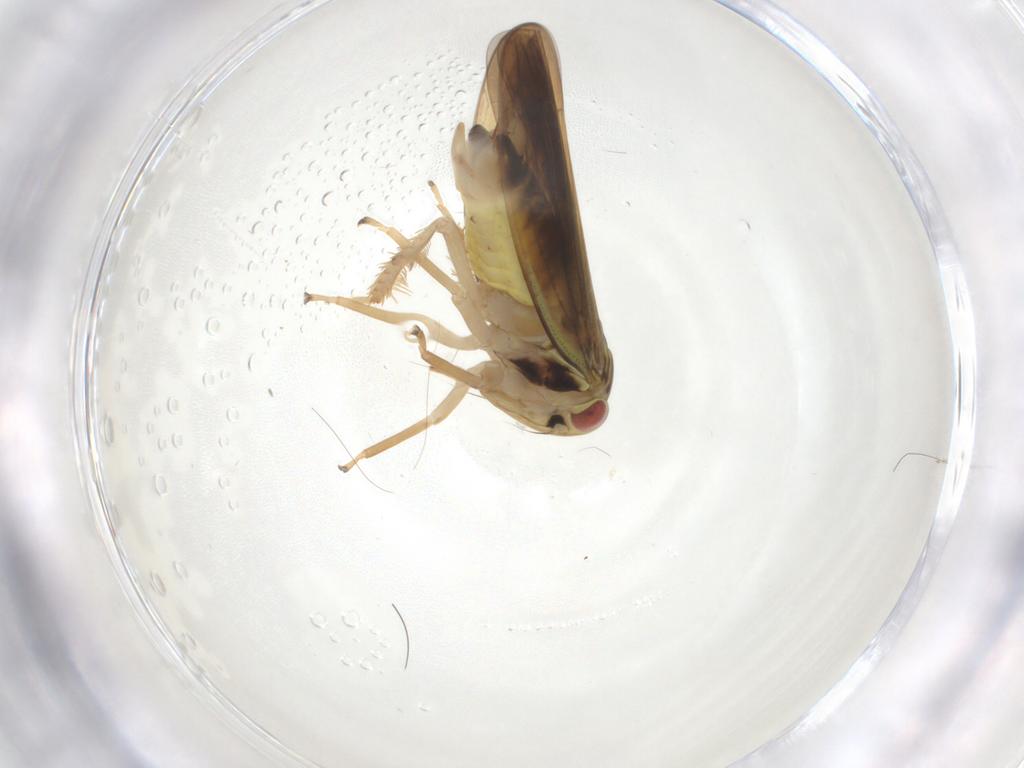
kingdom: Animalia
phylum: Arthropoda
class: Insecta
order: Hemiptera
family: Cicadellidae
